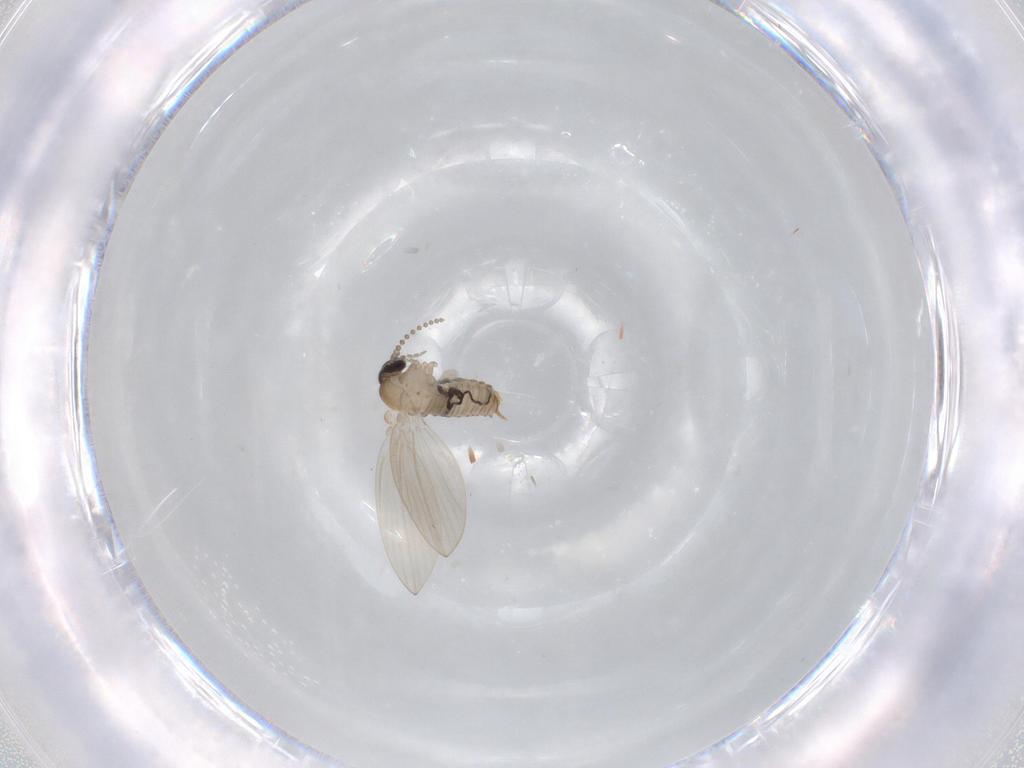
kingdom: Animalia
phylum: Arthropoda
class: Insecta
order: Diptera
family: Psychodidae
